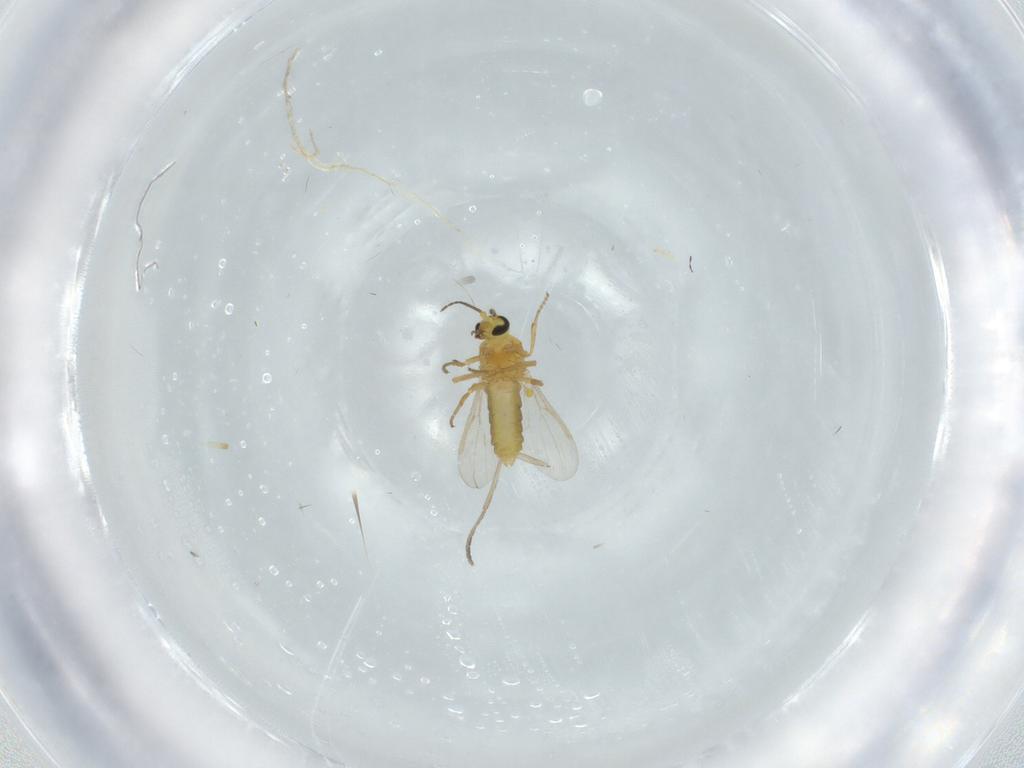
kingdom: Animalia
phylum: Arthropoda
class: Insecta
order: Diptera
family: Ceratopogonidae
